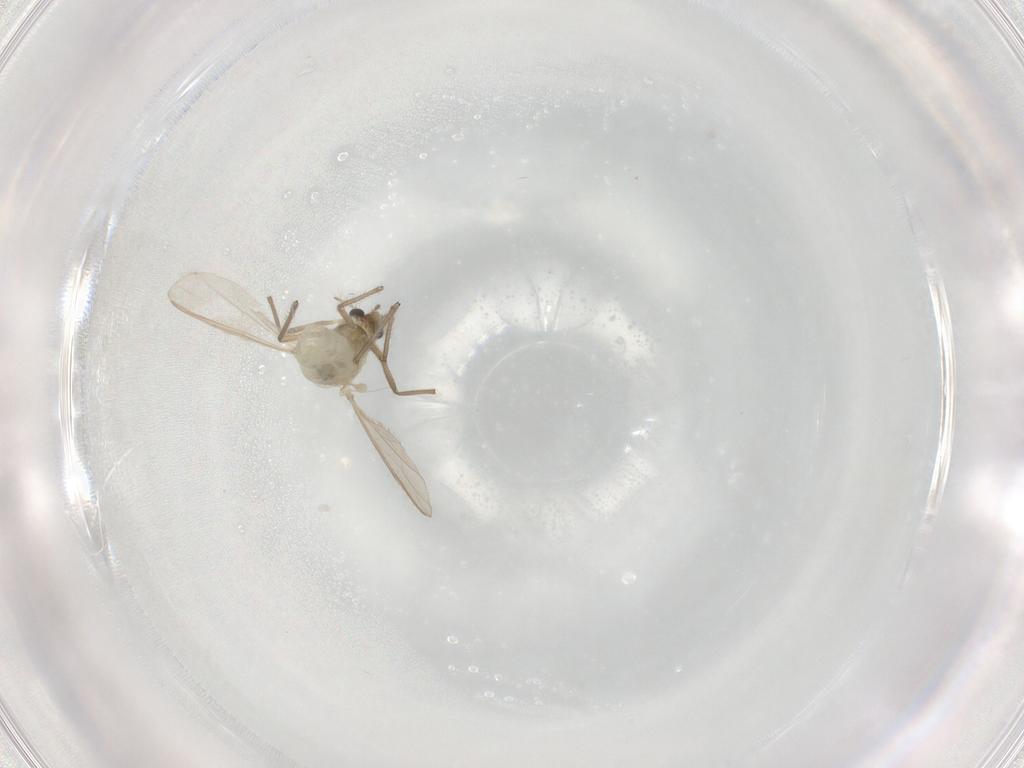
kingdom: Animalia
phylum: Arthropoda
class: Insecta
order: Diptera
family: Chironomidae
